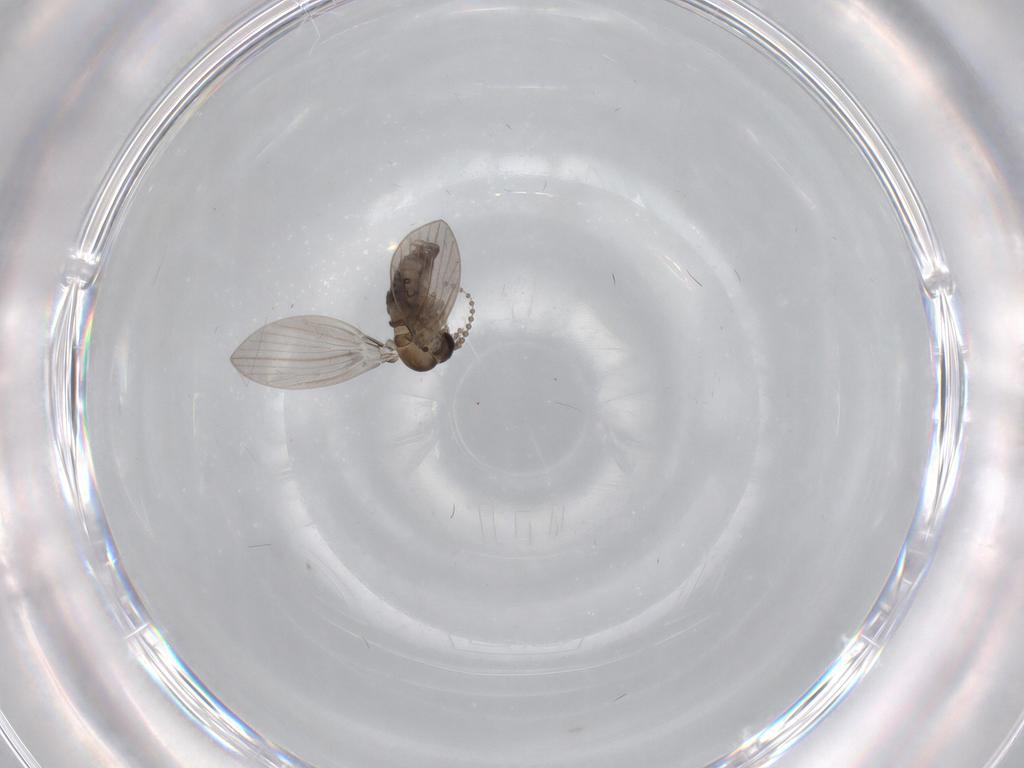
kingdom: Animalia
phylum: Arthropoda
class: Insecta
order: Diptera
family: Psychodidae
